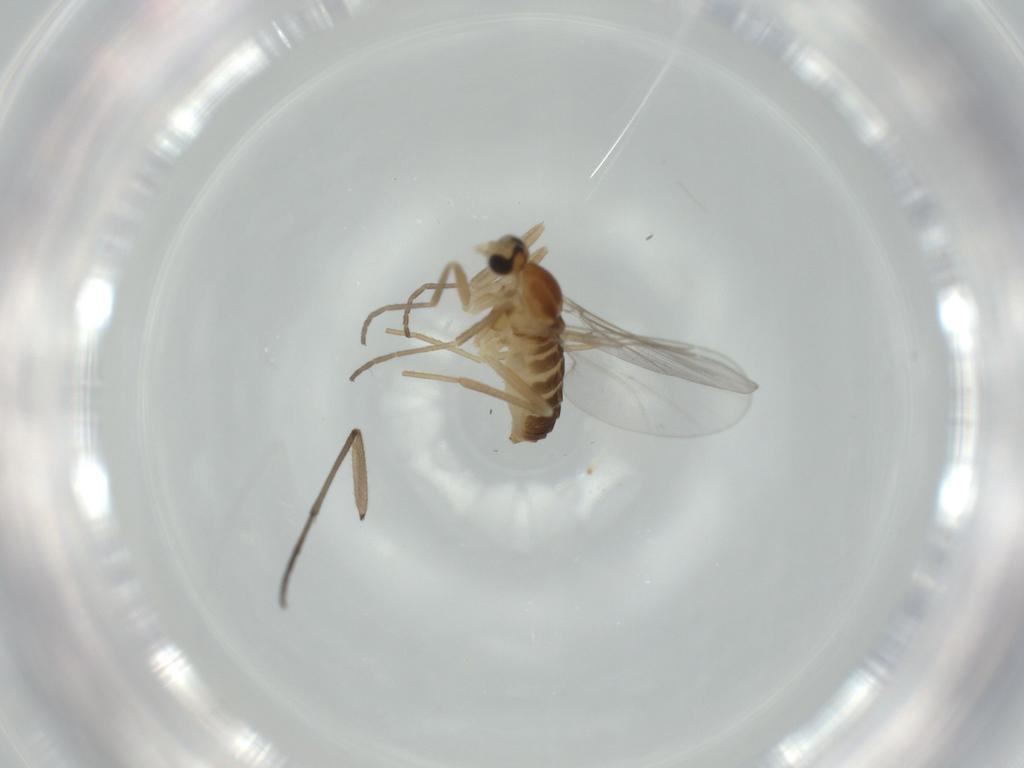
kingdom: Animalia
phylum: Arthropoda
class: Insecta
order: Diptera
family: Cecidomyiidae
